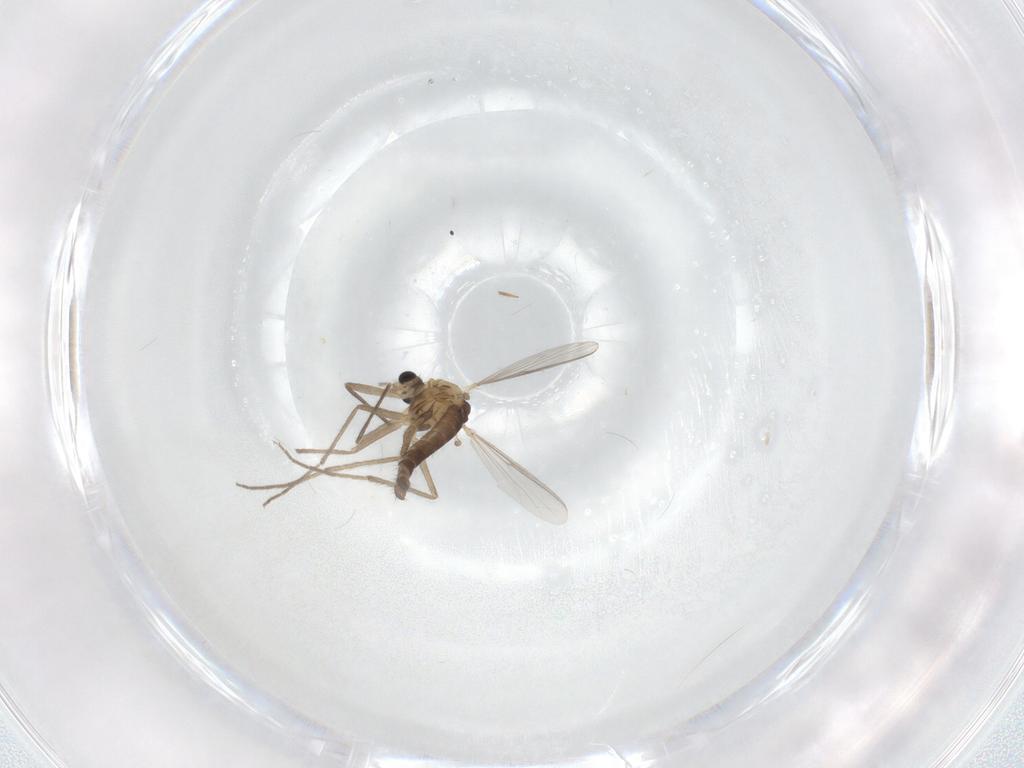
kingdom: Animalia
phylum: Arthropoda
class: Insecta
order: Diptera
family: Chironomidae
